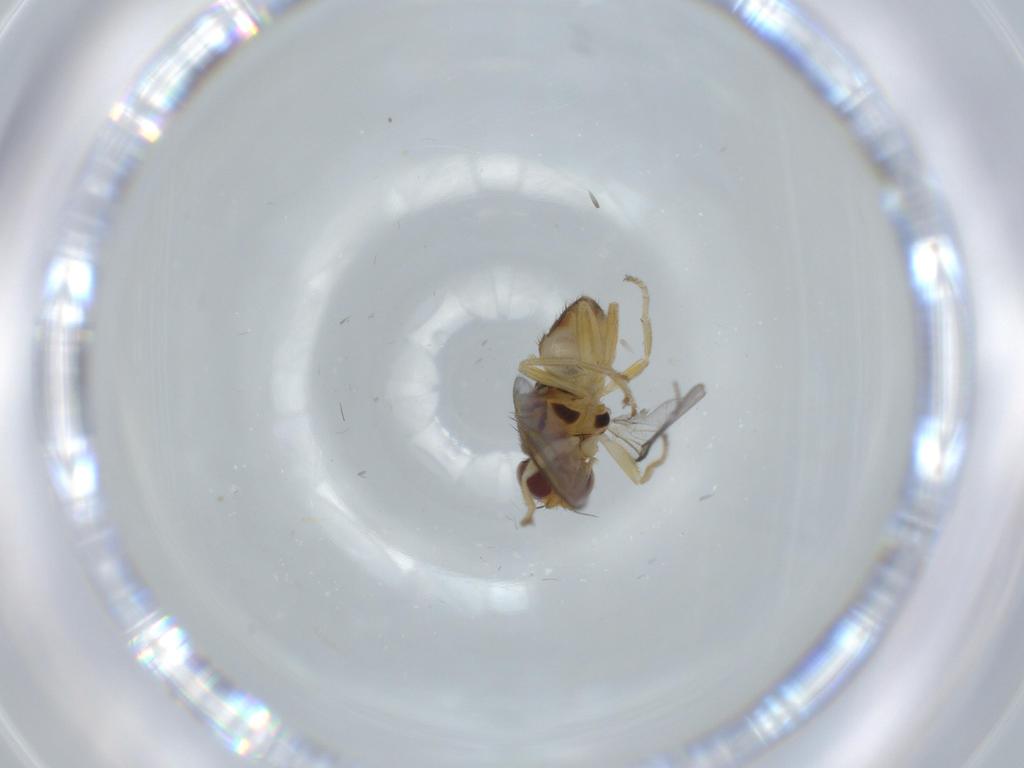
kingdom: Animalia
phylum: Arthropoda
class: Insecta
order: Diptera
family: Chloropidae
